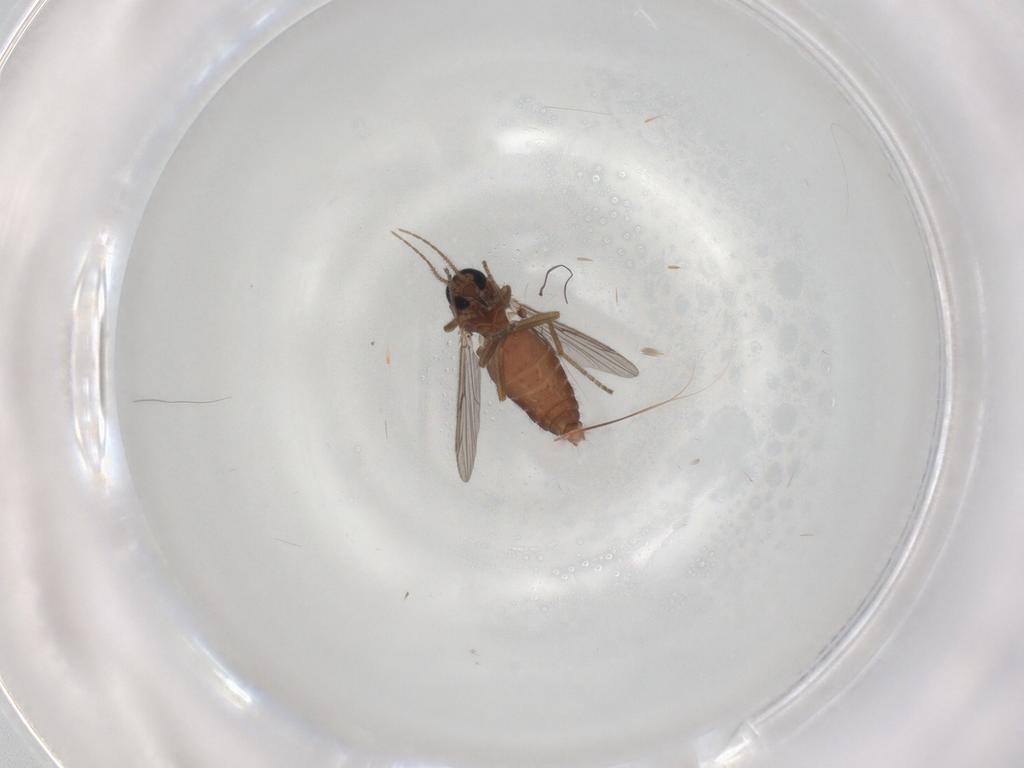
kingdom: Animalia
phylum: Arthropoda
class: Insecta
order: Diptera
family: Ceratopogonidae
